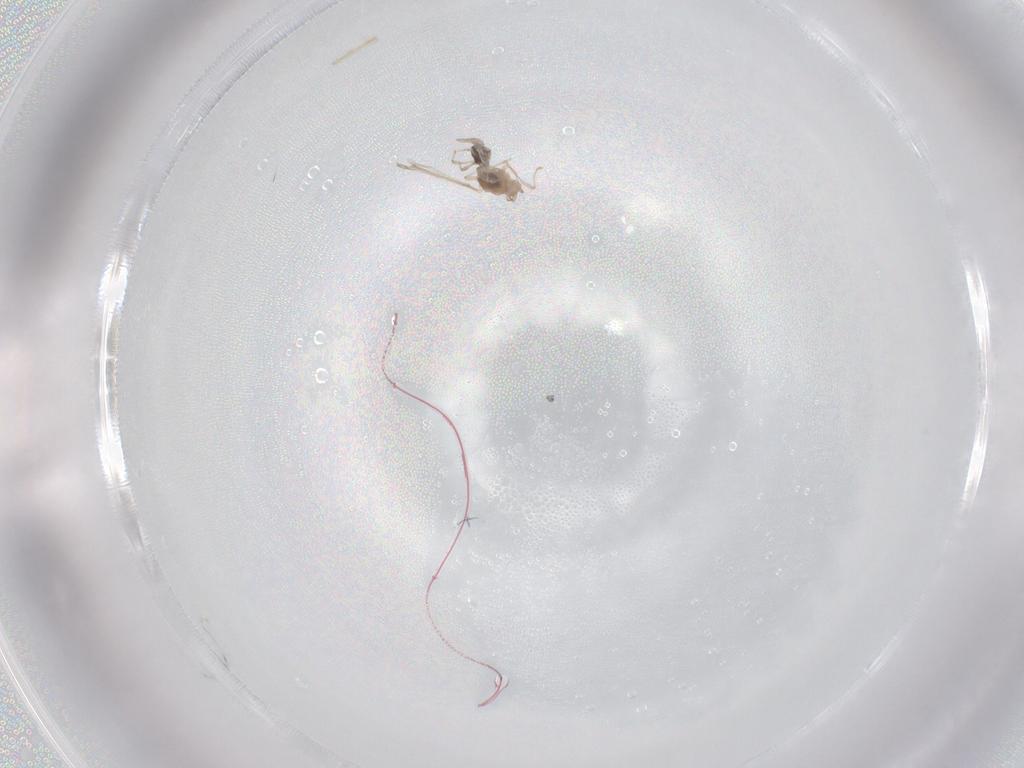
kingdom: Animalia
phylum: Arthropoda
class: Insecta
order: Diptera
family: Cecidomyiidae
